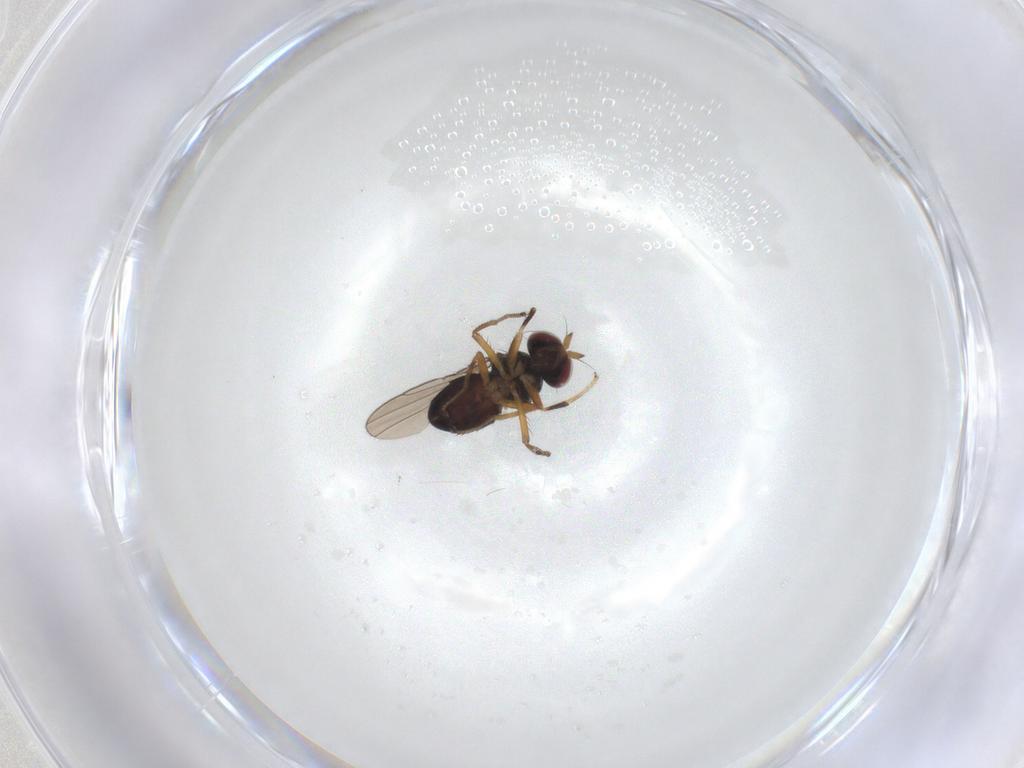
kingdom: Animalia
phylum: Arthropoda
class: Insecta
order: Diptera
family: Ephydridae
